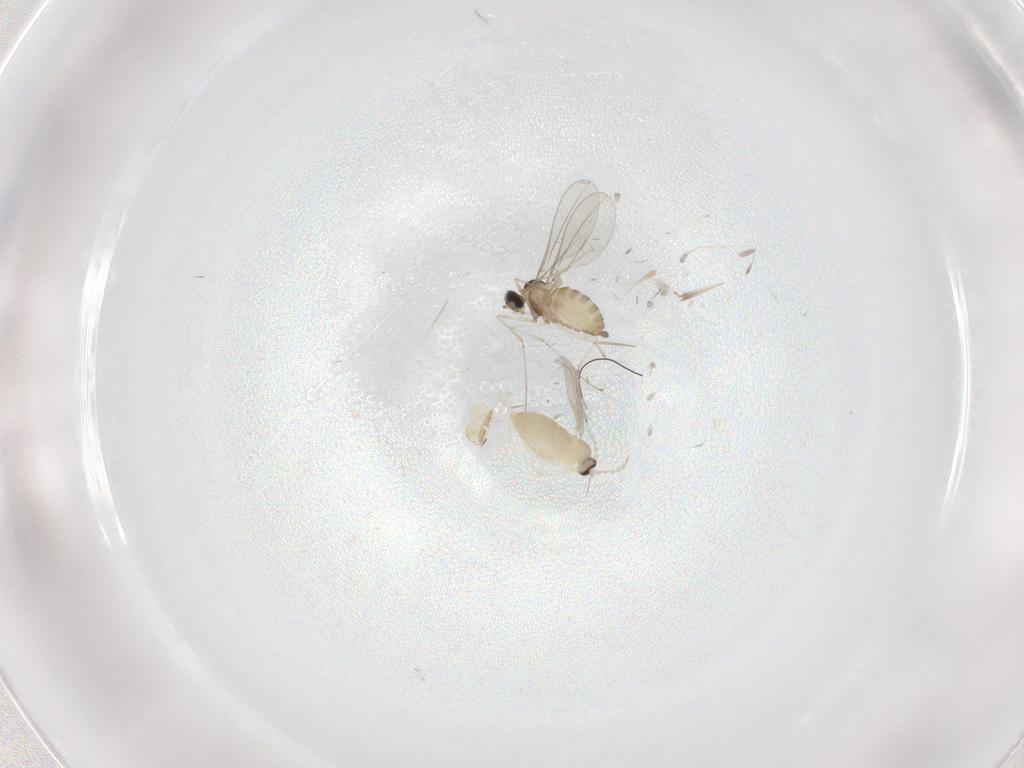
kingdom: Animalia
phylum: Arthropoda
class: Insecta
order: Diptera
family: Cecidomyiidae
